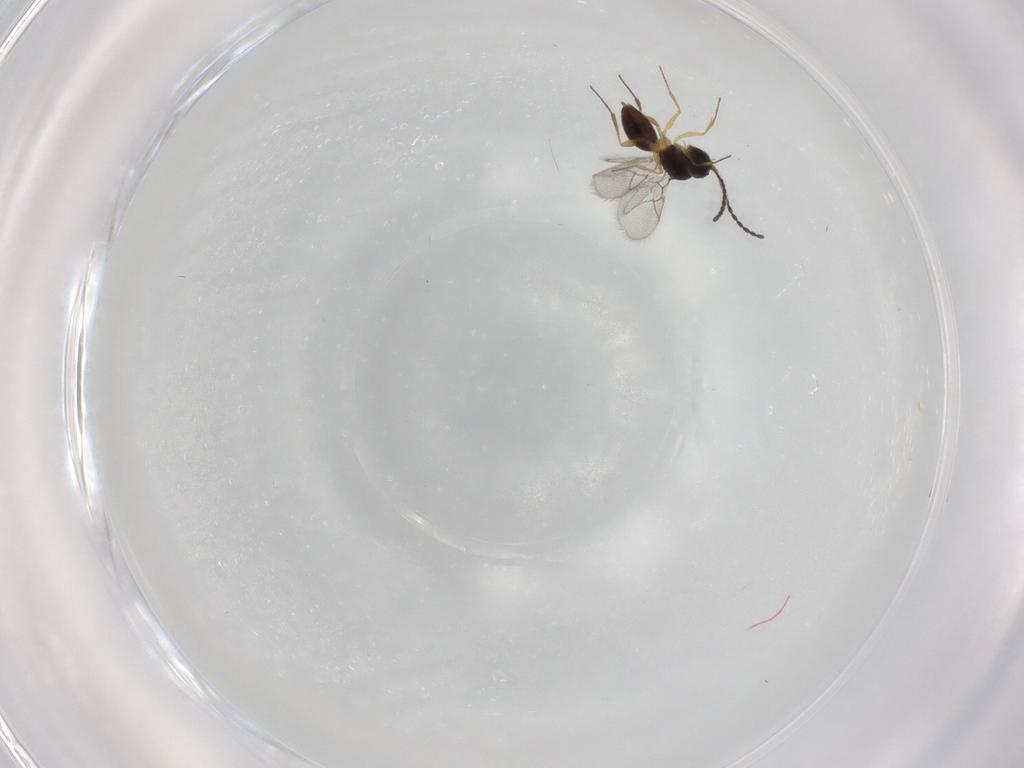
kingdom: Animalia
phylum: Arthropoda
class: Insecta
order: Hymenoptera
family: Figitidae
